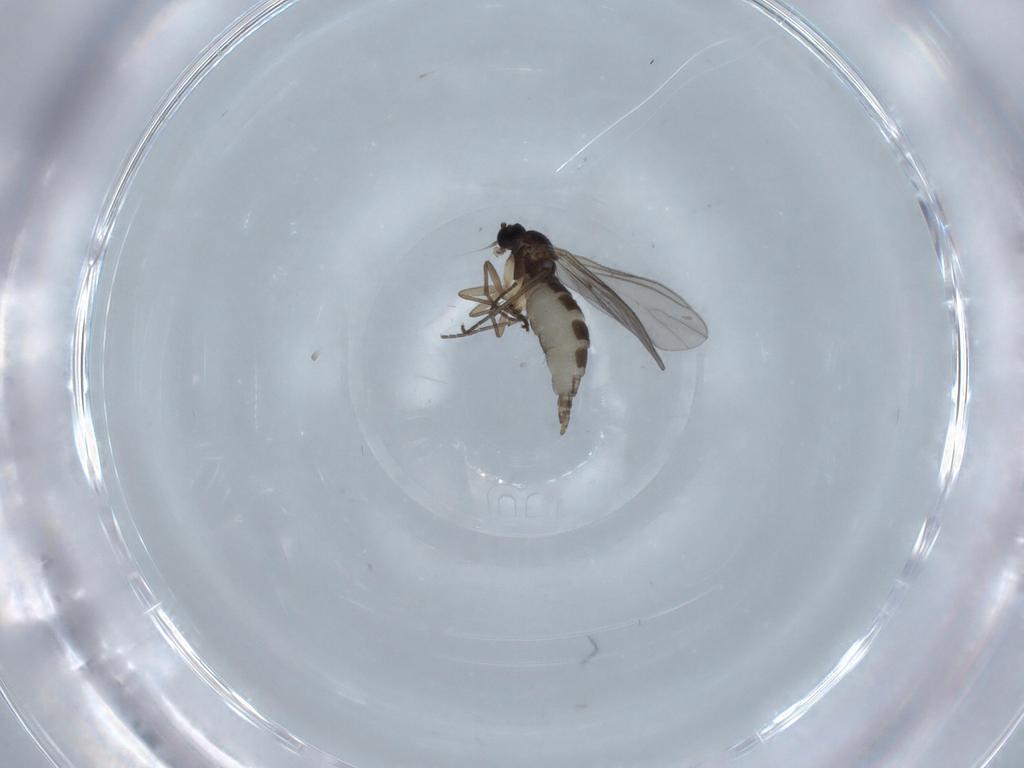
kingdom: Animalia
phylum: Arthropoda
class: Insecta
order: Diptera
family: Sciaridae
